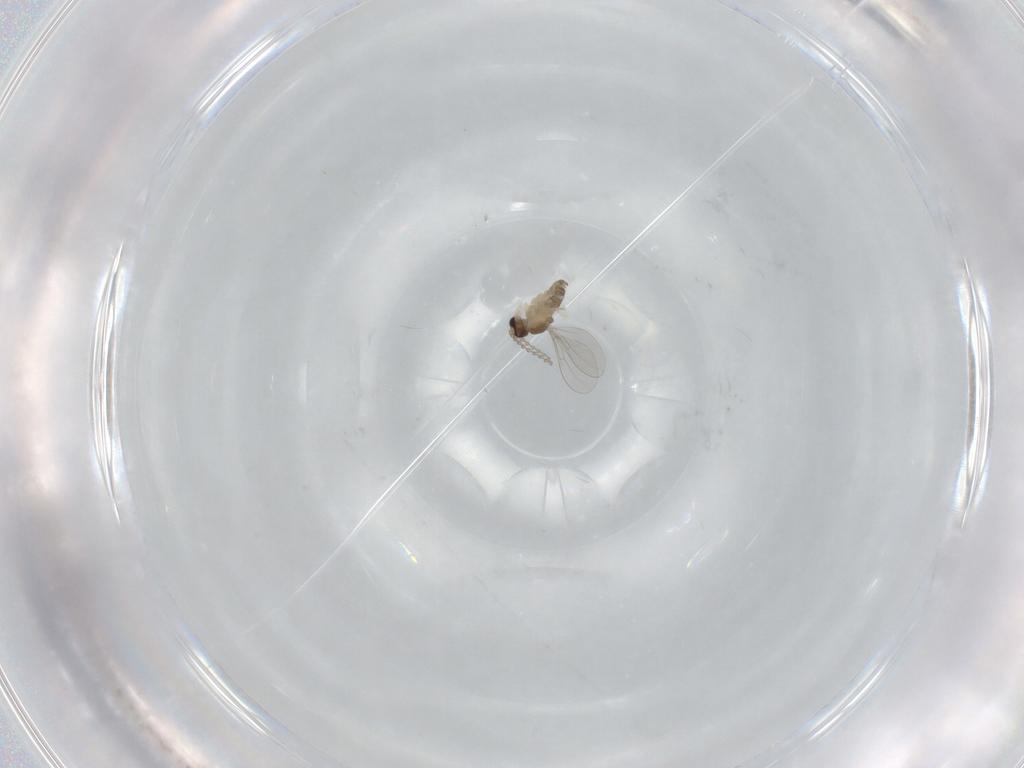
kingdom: Animalia
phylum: Arthropoda
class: Insecta
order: Diptera
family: Cecidomyiidae
